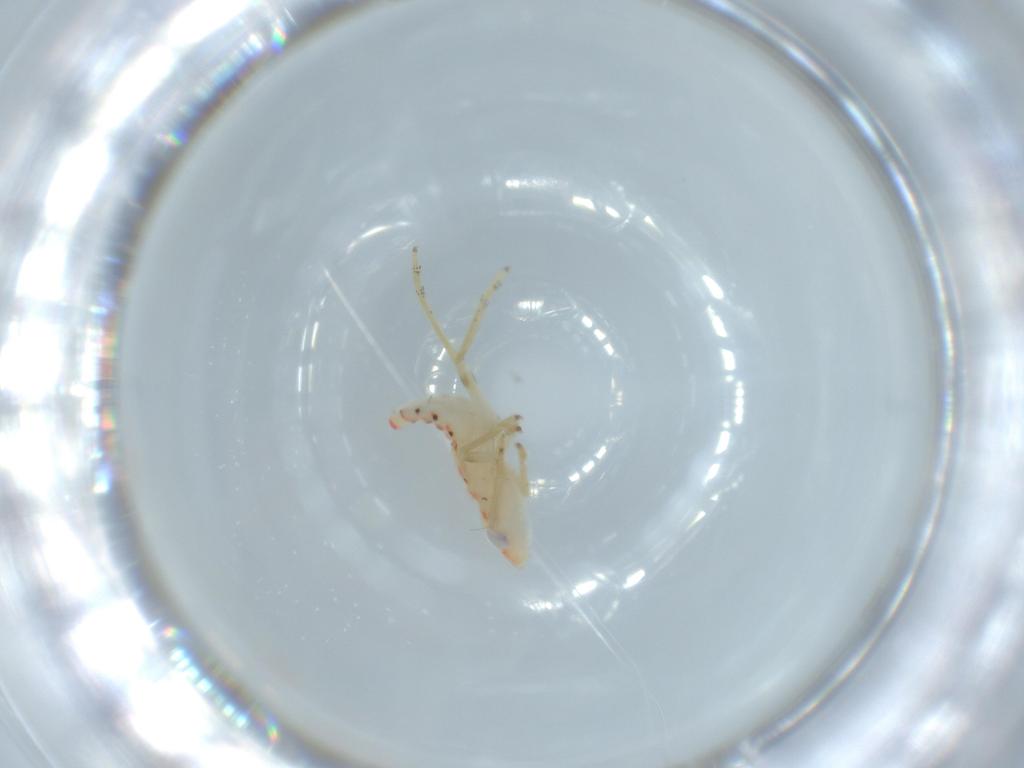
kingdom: Animalia
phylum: Arthropoda
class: Insecta
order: Hemiptera
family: Tropiduchidae
